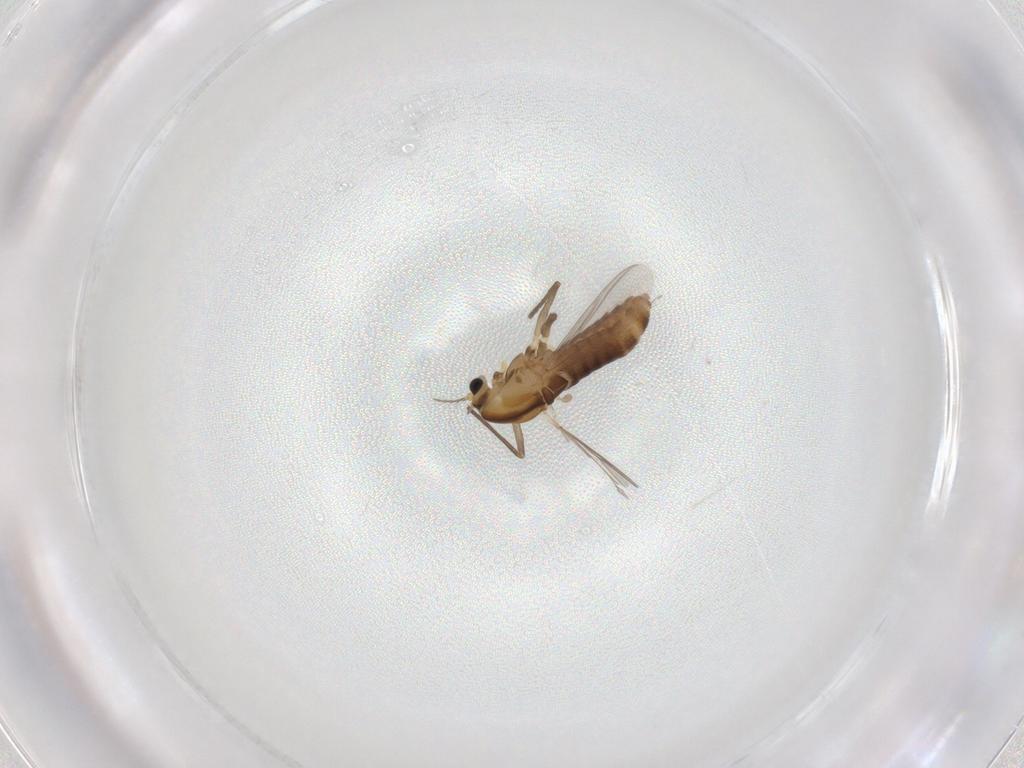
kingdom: Animalia
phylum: Arthropoda
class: Insecta
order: Diptera
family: Chironomidae
